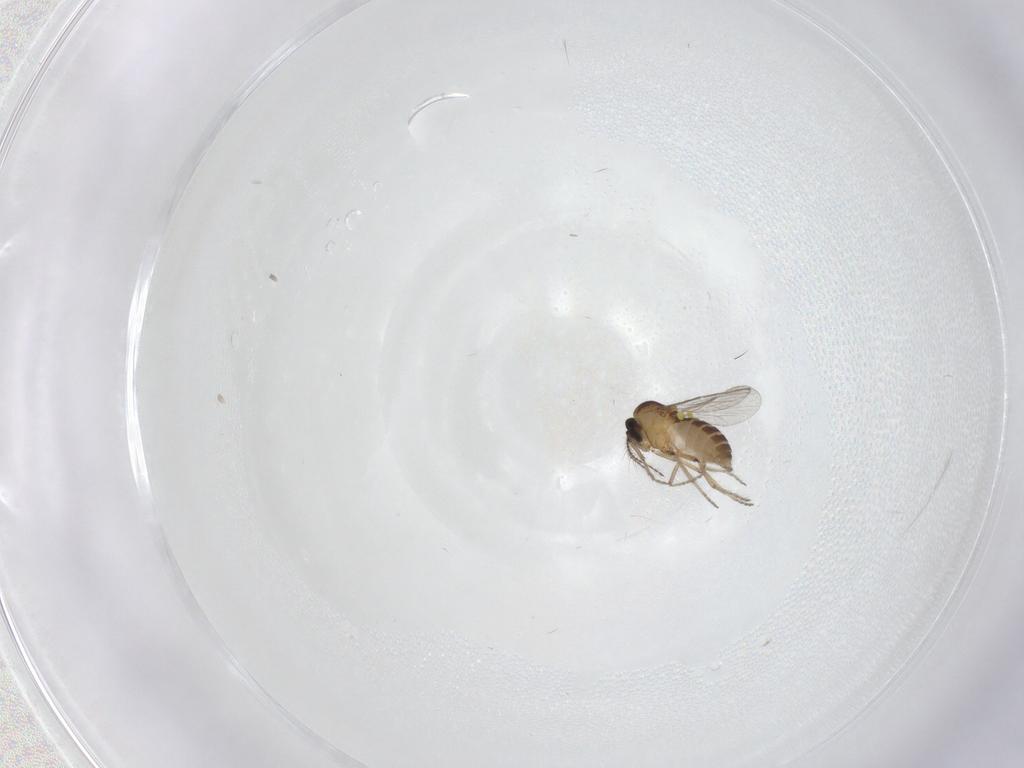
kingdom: Animalia
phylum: Arthropoda
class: Insecta
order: Diptera
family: Ceratopogonidae
